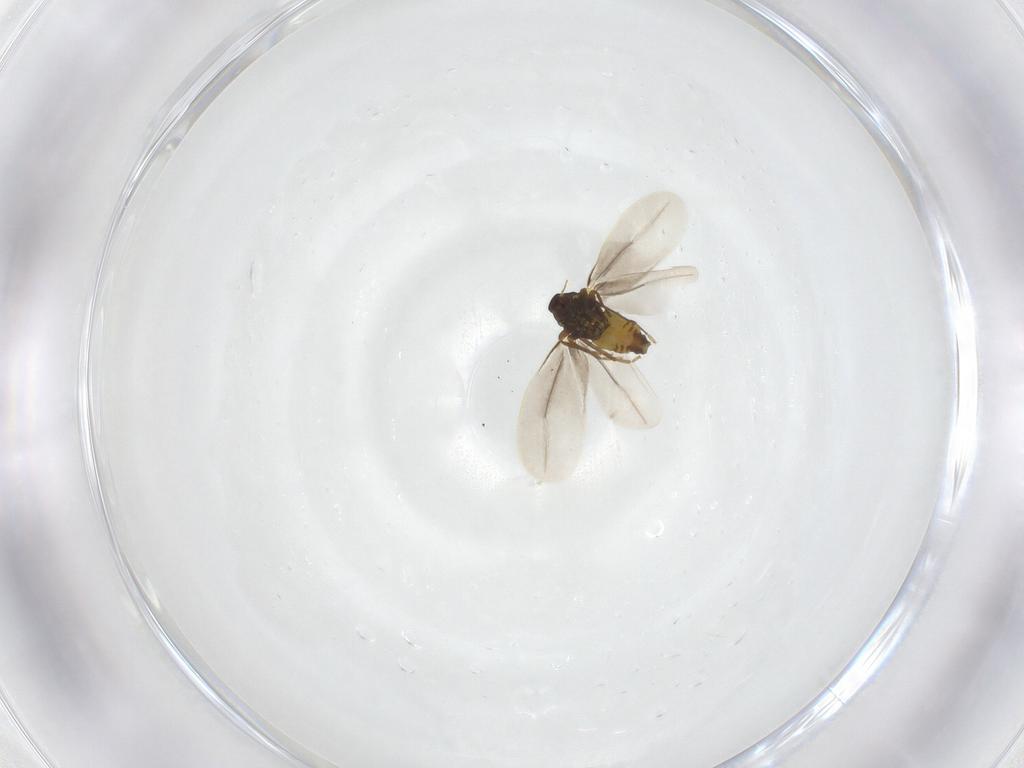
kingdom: Animalia
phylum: Arthropoda
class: Insecta
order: Hemiptera
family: Aleyrodidae
